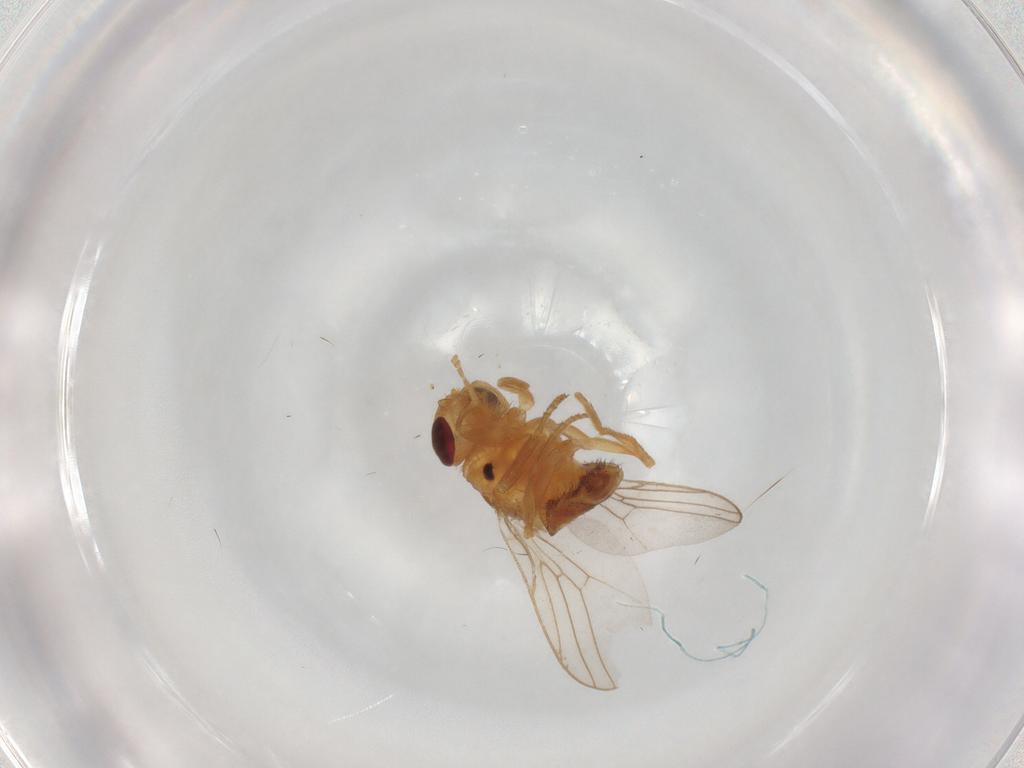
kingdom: Animalia
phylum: Arthropoda
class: Insecta
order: Diptera
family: Chloropidae
